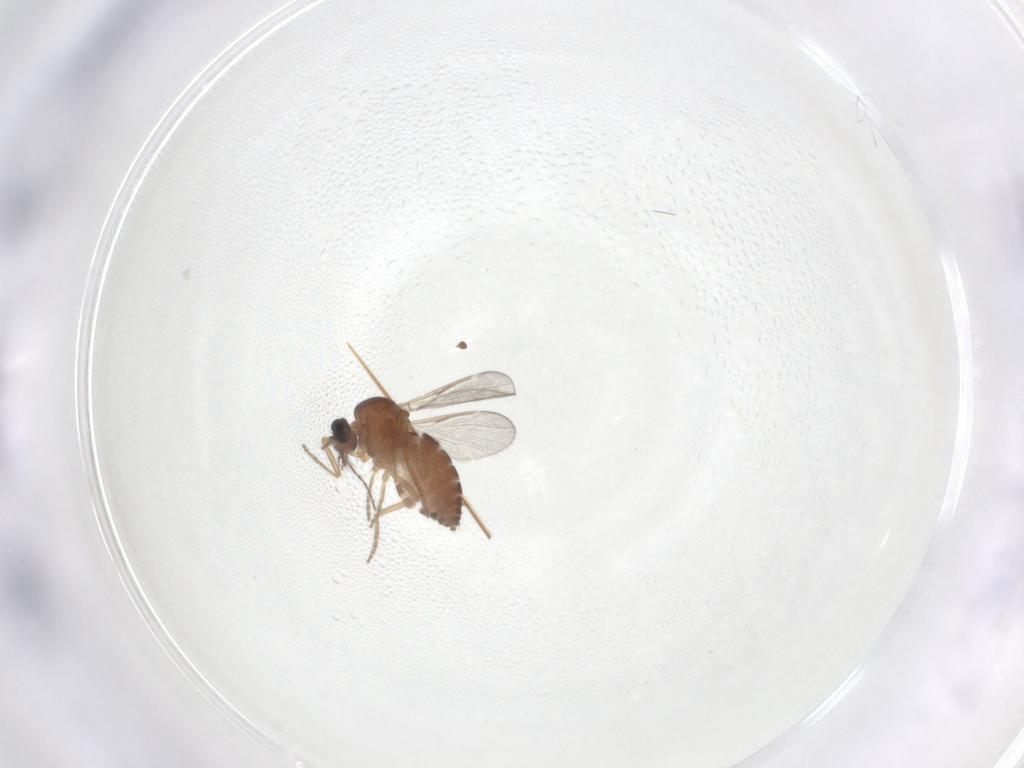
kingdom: Animalia
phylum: Arthropoda
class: Insecta
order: Diptera
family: Ceratopogonidae
